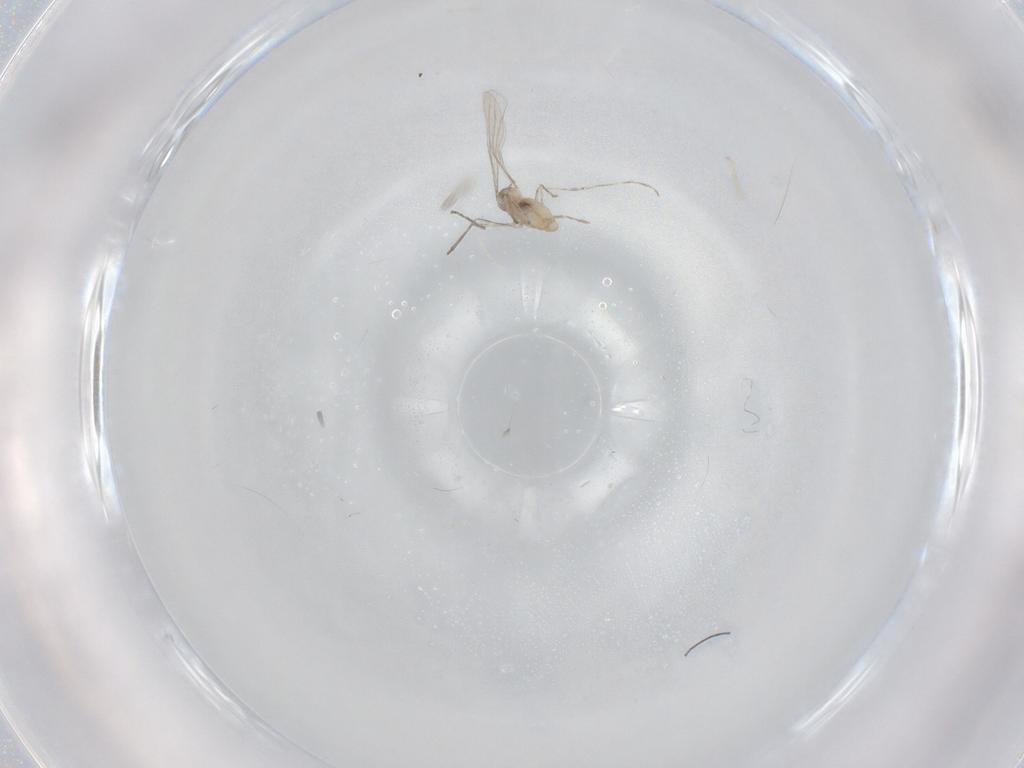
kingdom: Animalia
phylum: Arthropoda
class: Insecta
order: Diptera
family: Cecidomyiidae
